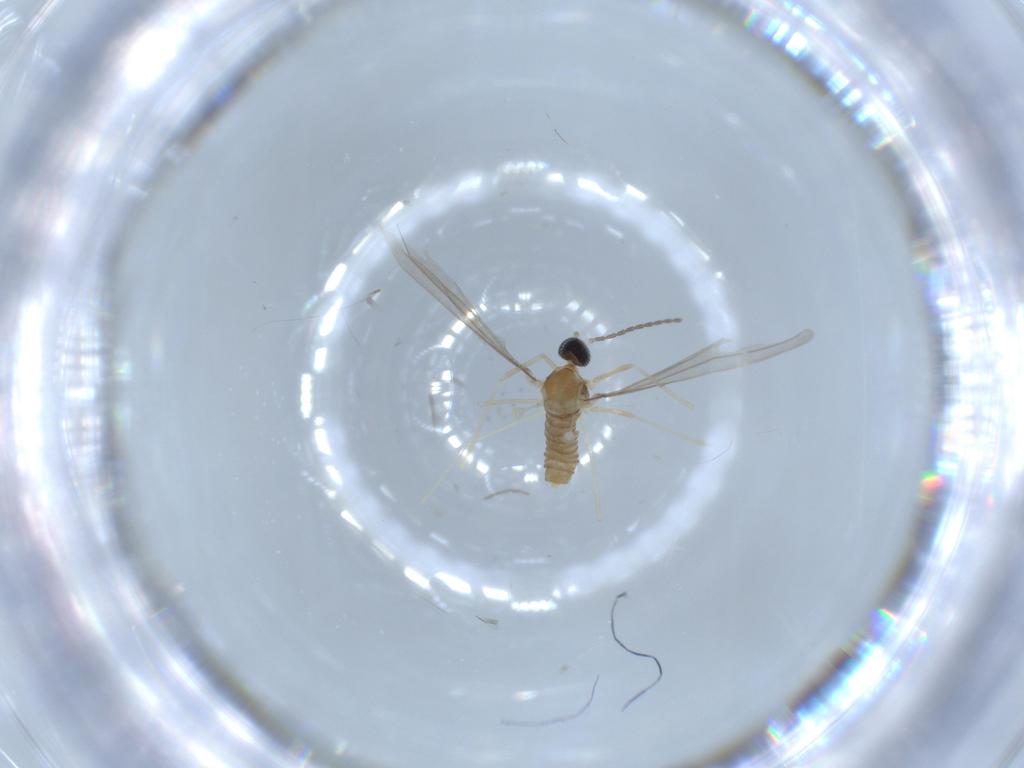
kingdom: Animalia
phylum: Arthropoda
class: Insecta
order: Diptera
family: Cecidomyiidae
